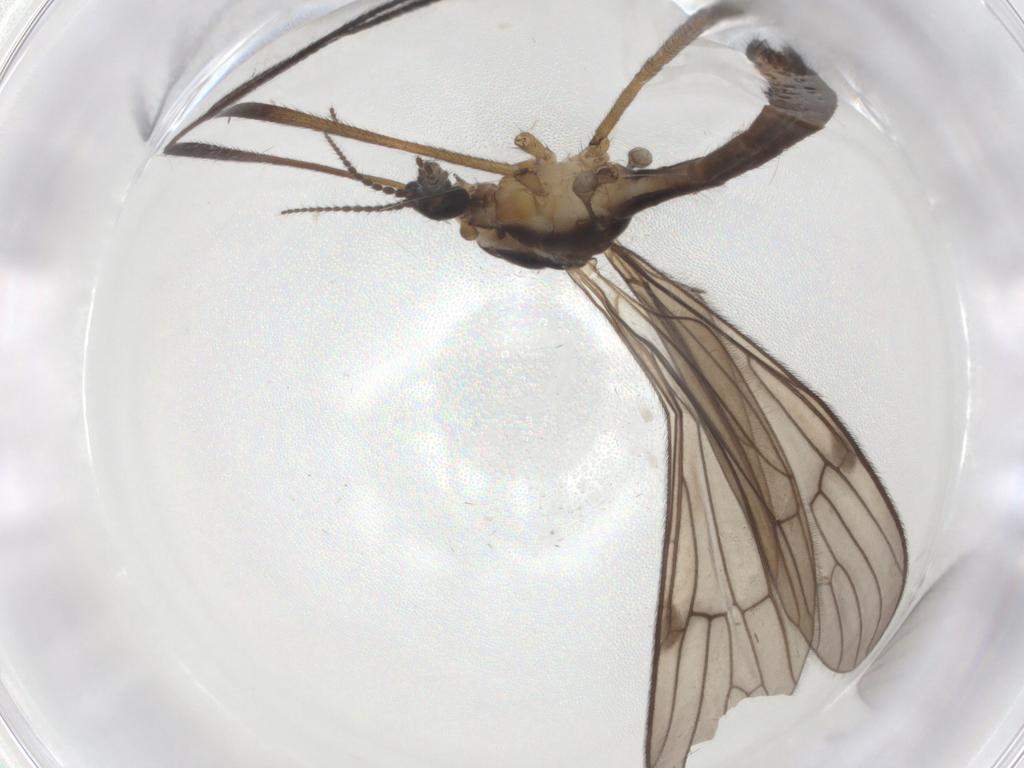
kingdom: Animalia
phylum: Arthropoda
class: Insecta
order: Diptera
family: Limoniidae
